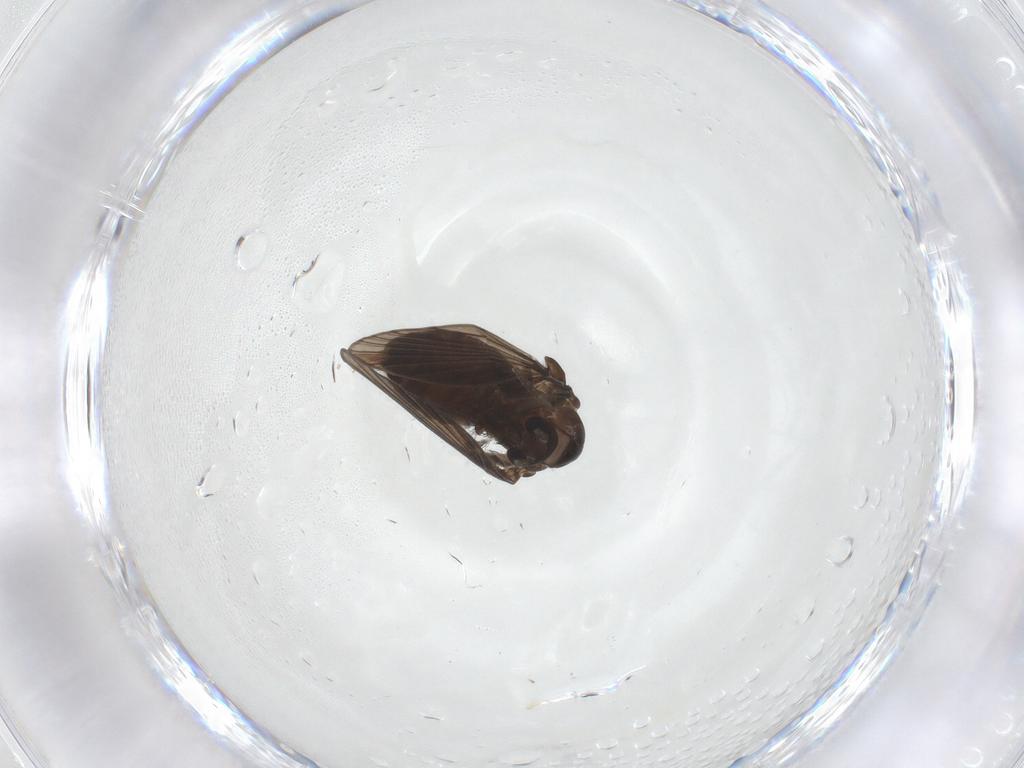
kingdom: Animalia
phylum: Arthropoda
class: Insecta
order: Diptera
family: Psychodidae
